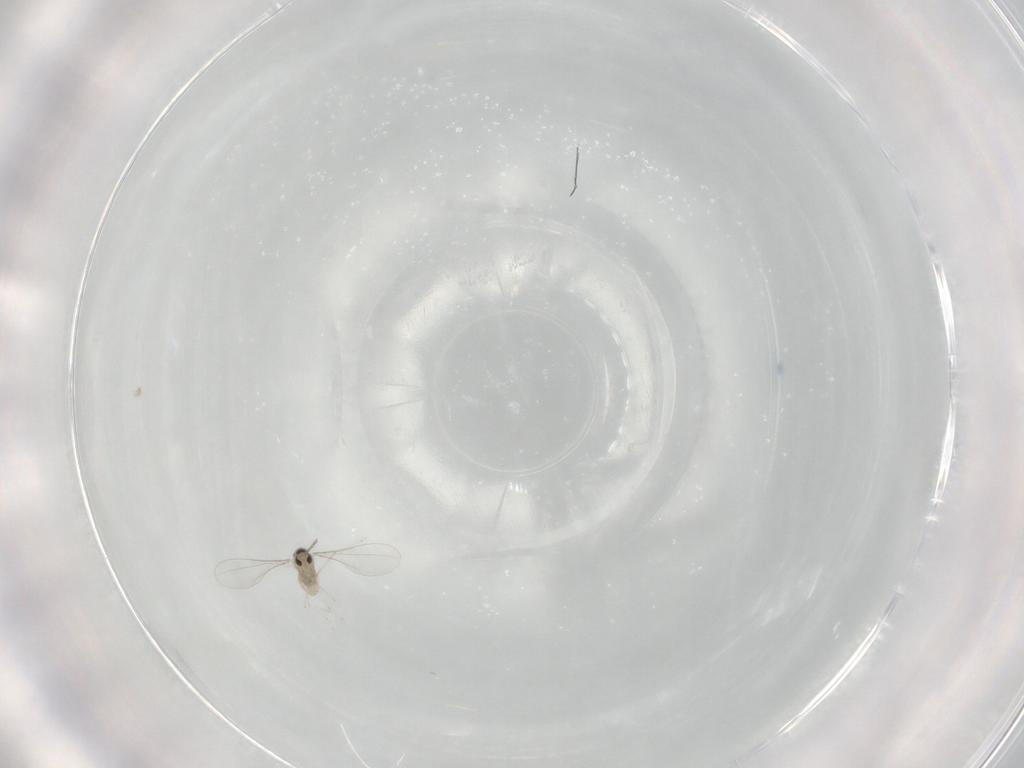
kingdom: Animalia
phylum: Arthropoda
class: Insecta
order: Diptera
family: Cecidomyiidae
